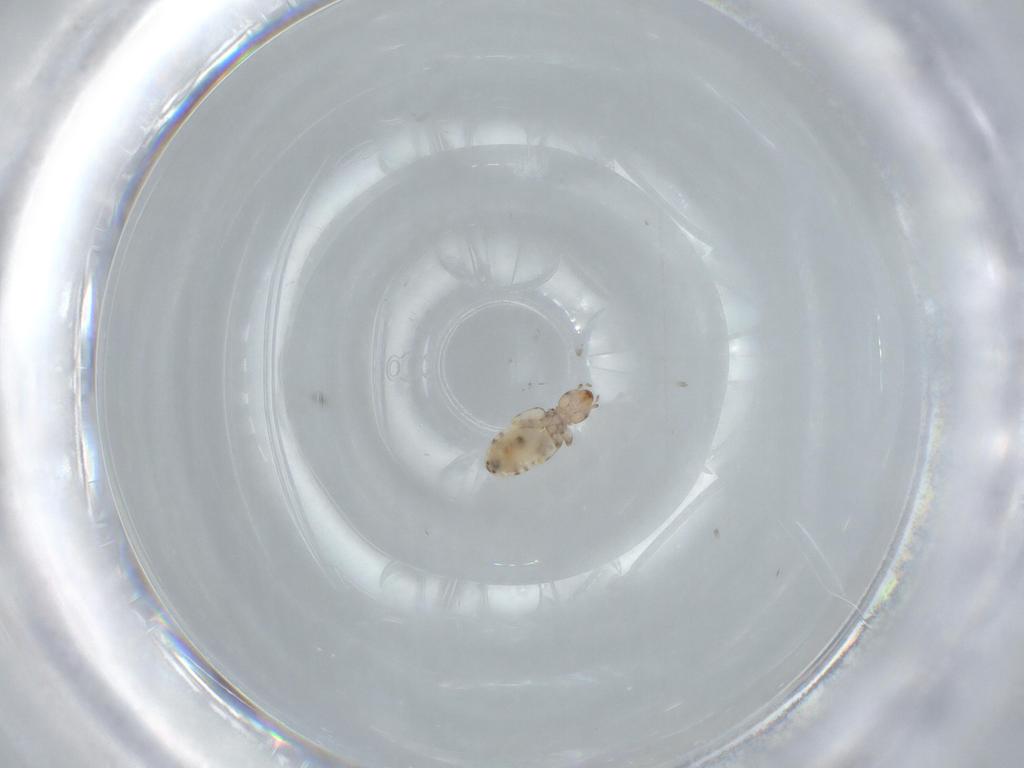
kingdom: Animalia
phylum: Arthropoda
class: Insecta
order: Psocodea
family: Liposcelididae
